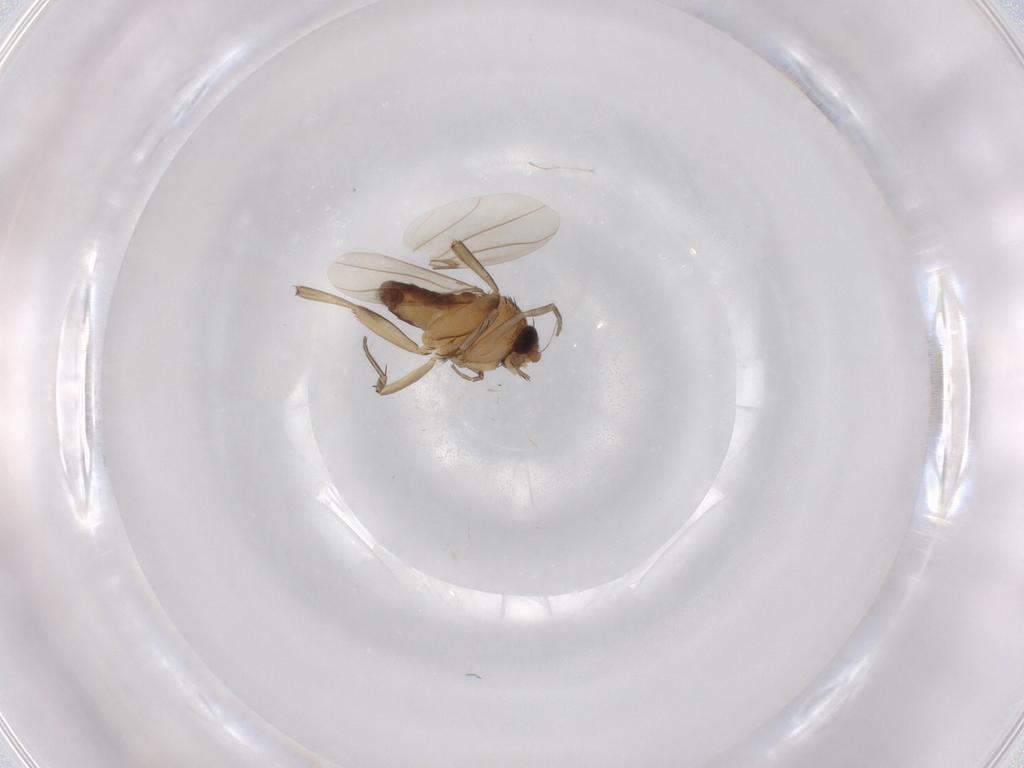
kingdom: Animalia
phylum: Arthropoda
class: Insecta
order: Diptera
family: Phoridae
